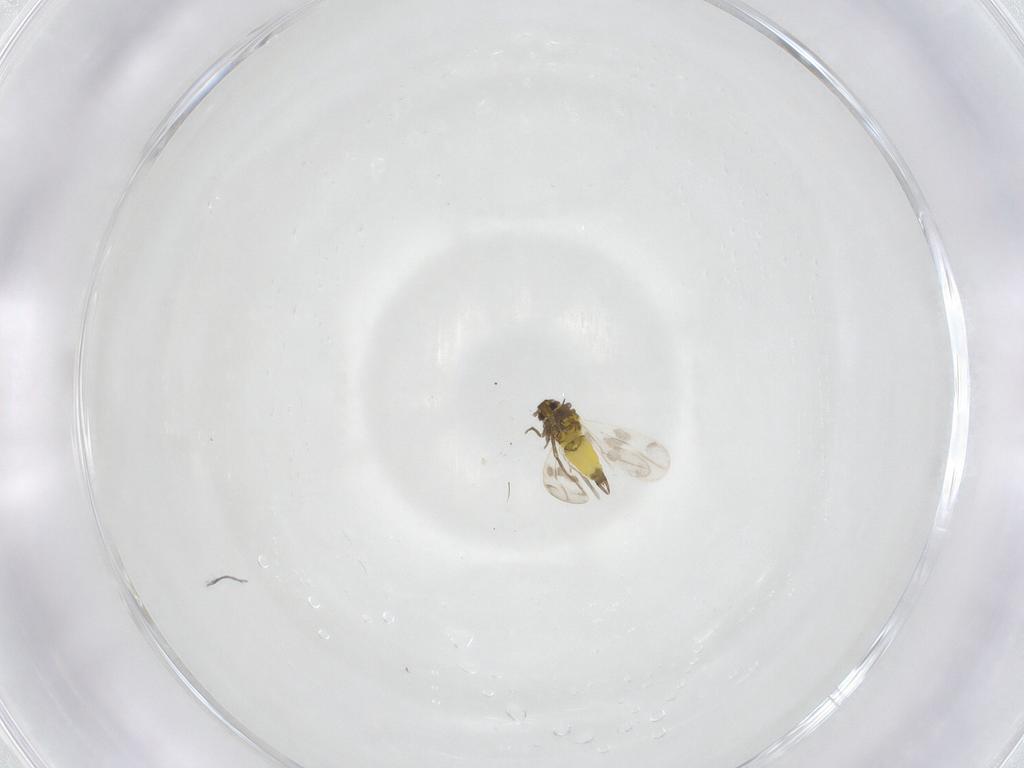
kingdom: Animalia
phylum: Arthropoda
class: Insecta
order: Hemiptera
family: Aleyrodidae
